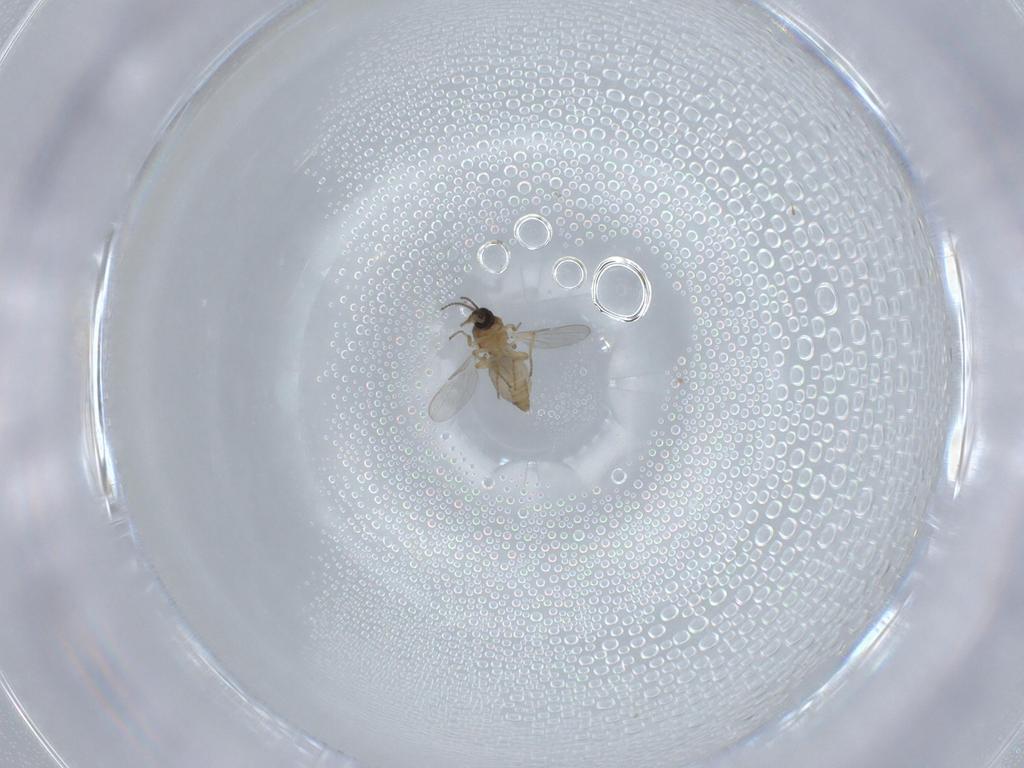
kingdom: Animalia
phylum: Arthropoda
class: Insecta
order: Diptera
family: Ceratopogonidae
